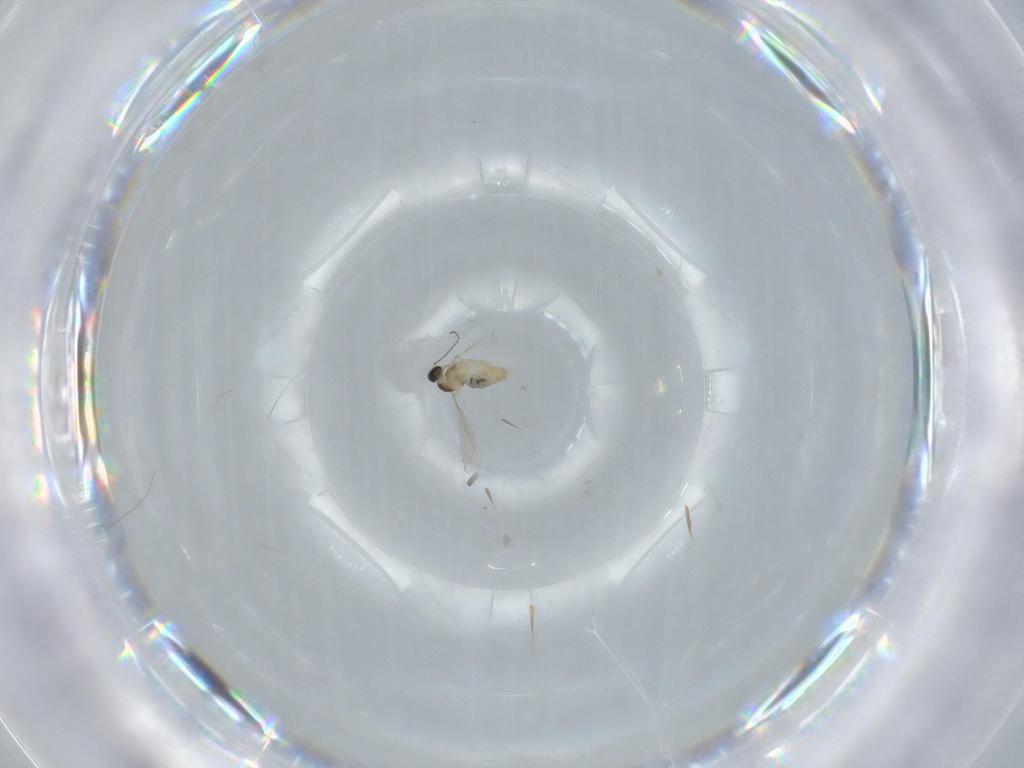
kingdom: Animalia
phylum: Arthropoda
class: Insecta
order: Diptera
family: Cecidomyiidae
